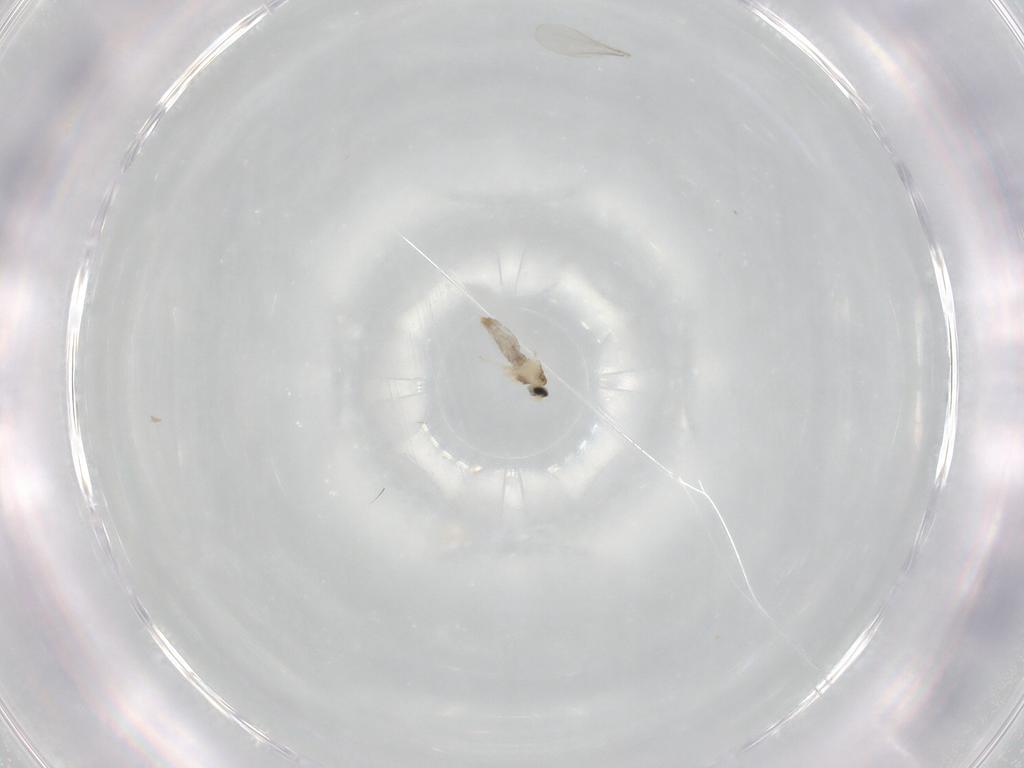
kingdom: Animalia
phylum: Arthropoda
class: Insecta
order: Diptera
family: Cecidomyiidae
